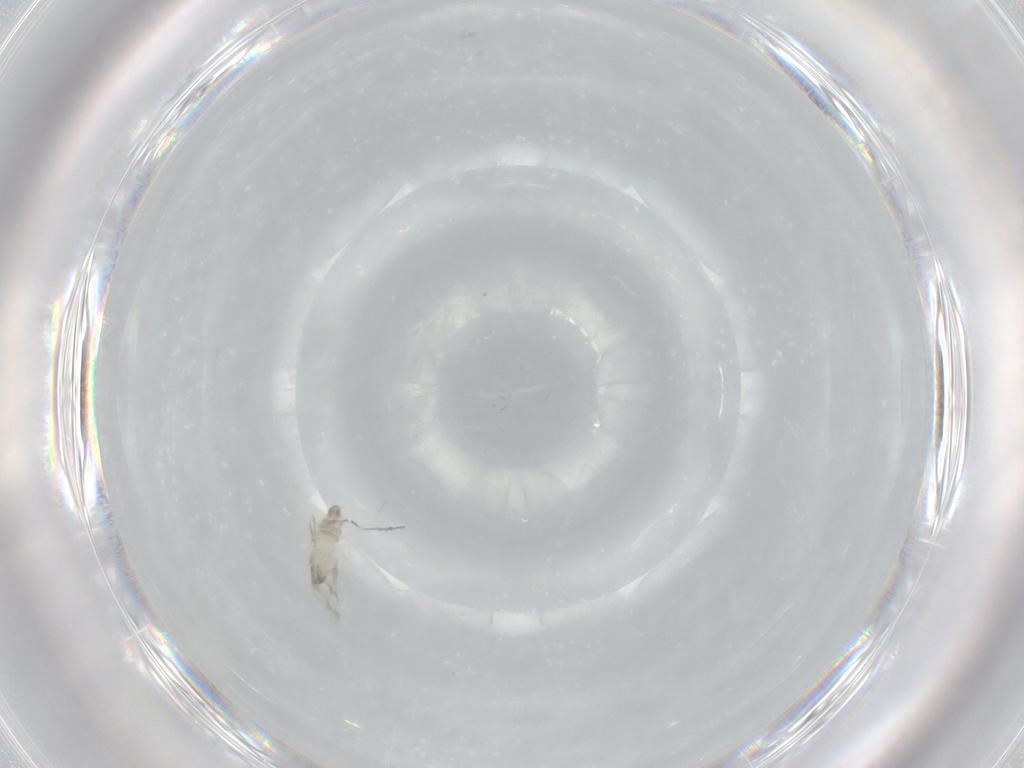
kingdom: Animalia
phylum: Arthropoda
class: Insecta
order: Diptera
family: Cecidomyiidae
